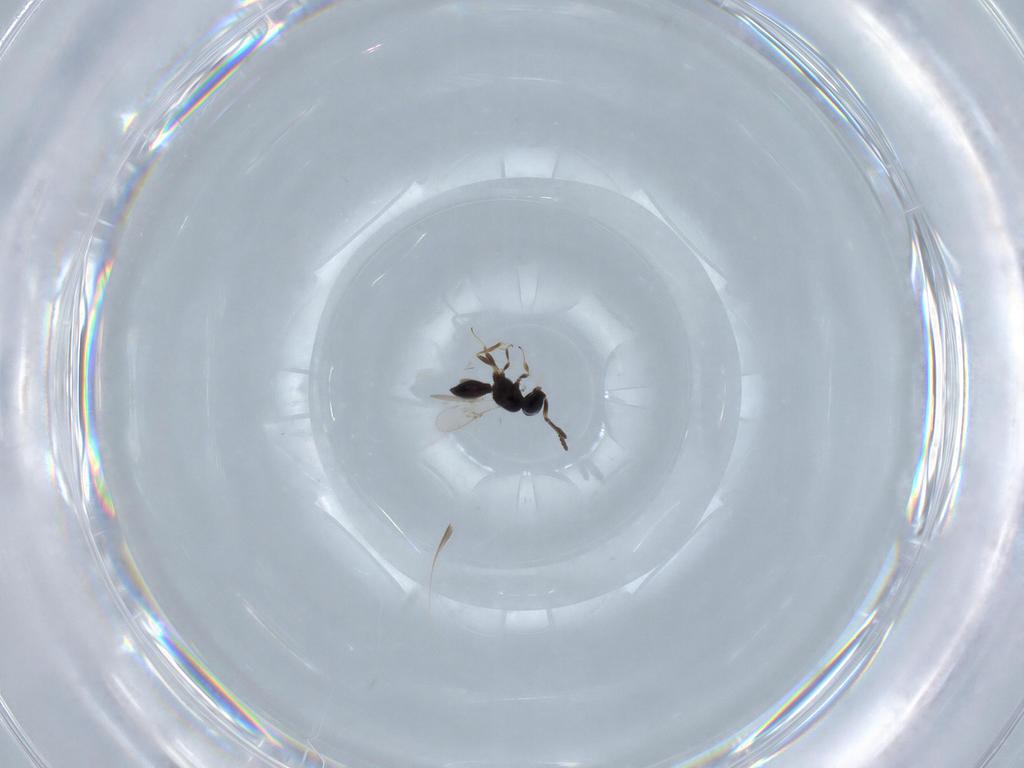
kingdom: Animalia
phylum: Arthropoda
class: Insecta
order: Hymenoptera
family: Scelionidae
